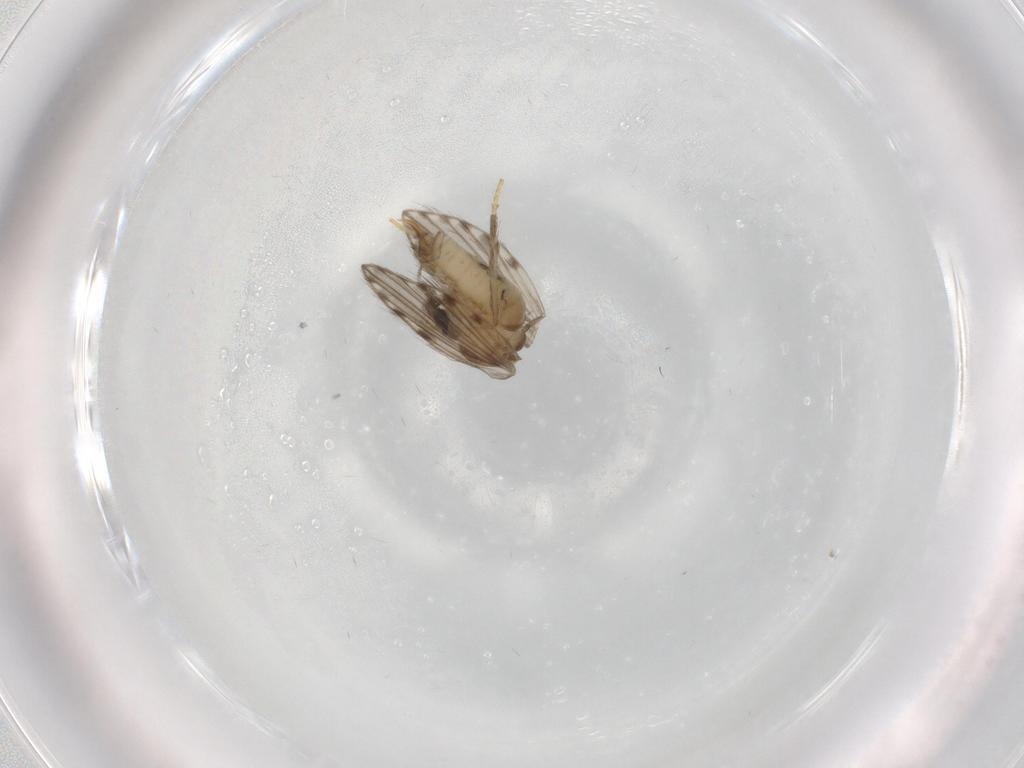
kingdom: Animalia
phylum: Arthropoda
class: Insecta
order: Diptera
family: Psychodidae
